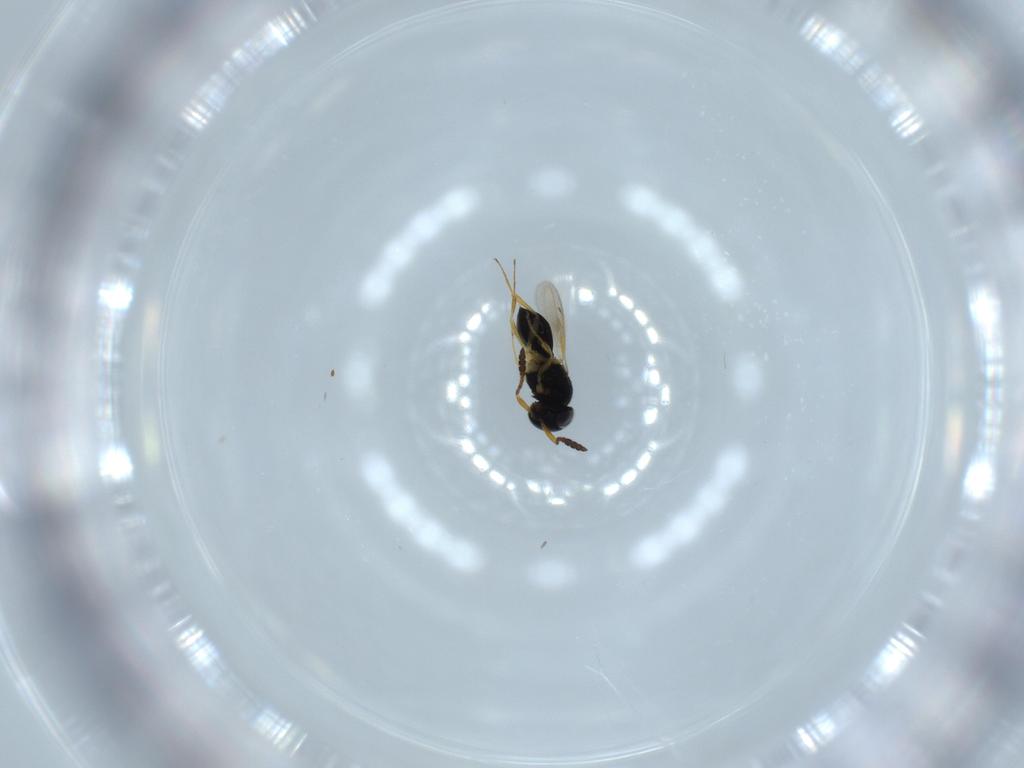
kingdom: Animalia
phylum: Arthropoda
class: Insecta
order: Hymenoptera
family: Scelionidae
